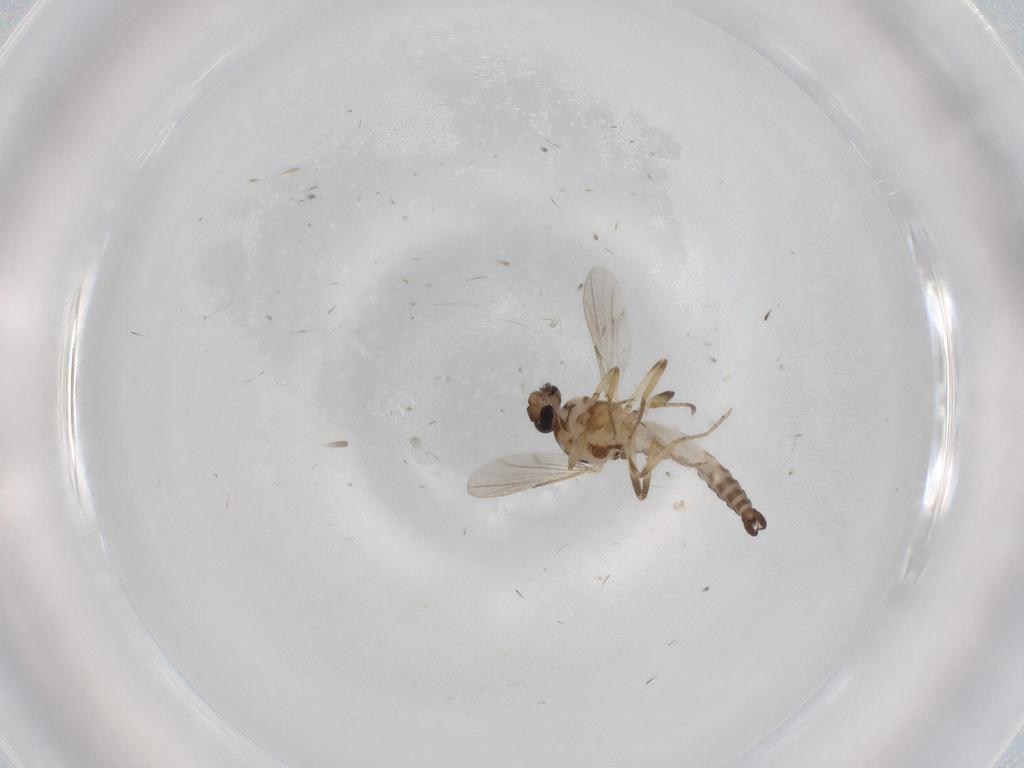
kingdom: Animalia
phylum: Arthropoda
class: Insecta
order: Diptera
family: Ceratopogonidae
